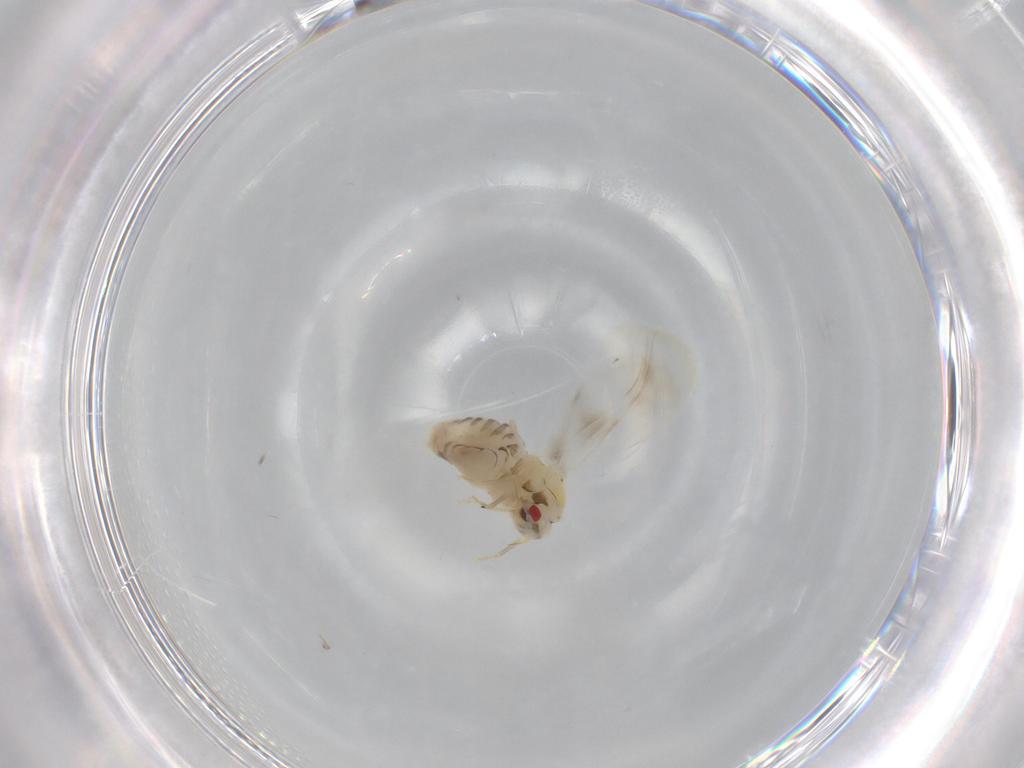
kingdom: Animalia
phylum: Arthropoda
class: Insecta
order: Hemiptera
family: Aleyrodidae
